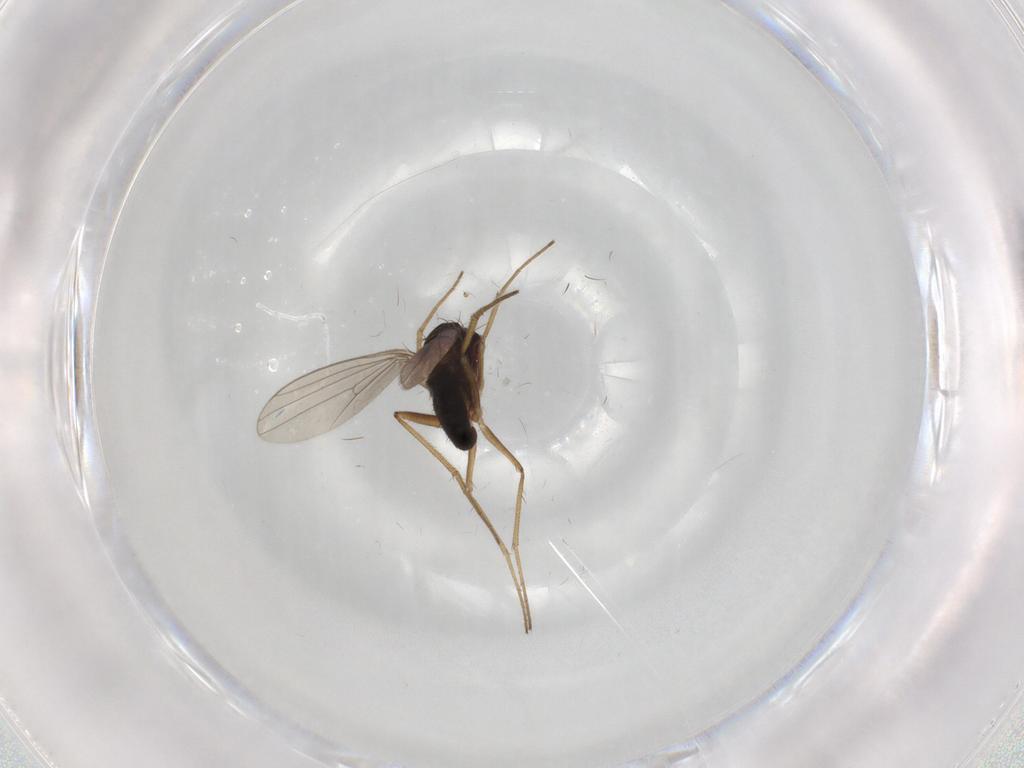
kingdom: Animalia
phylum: Arthropoda
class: Insecta
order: Diptera
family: Dolichopodidae
